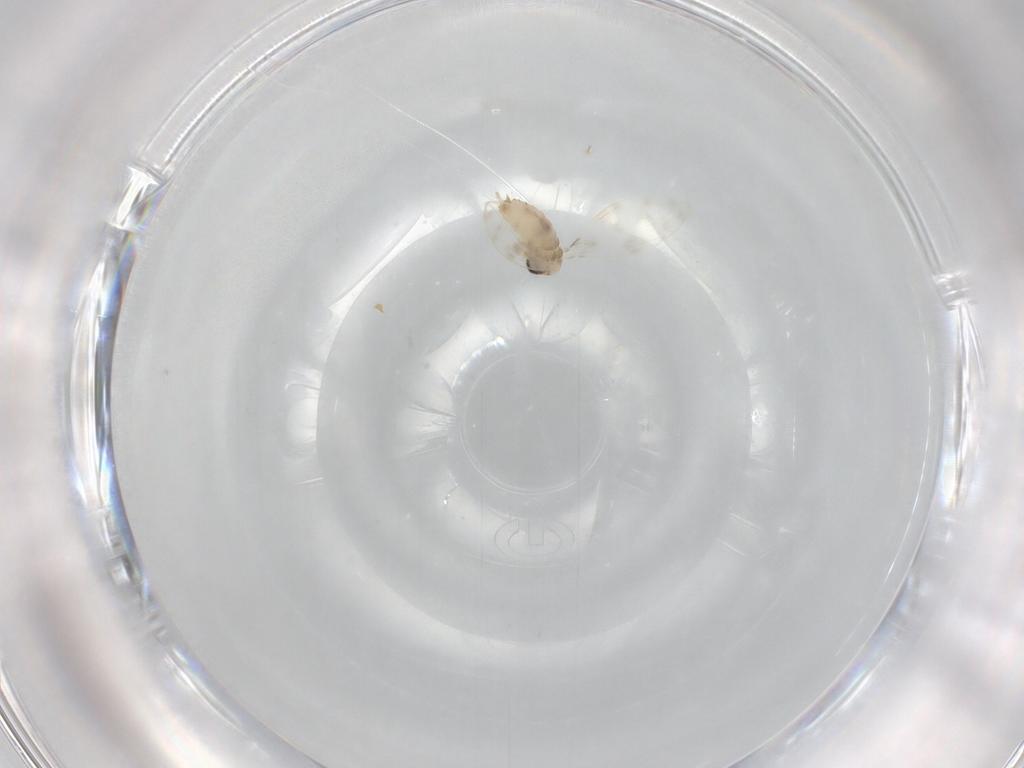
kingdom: Animalia
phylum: Arthropoda
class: Insecta
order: Diptera
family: Psychodidae
